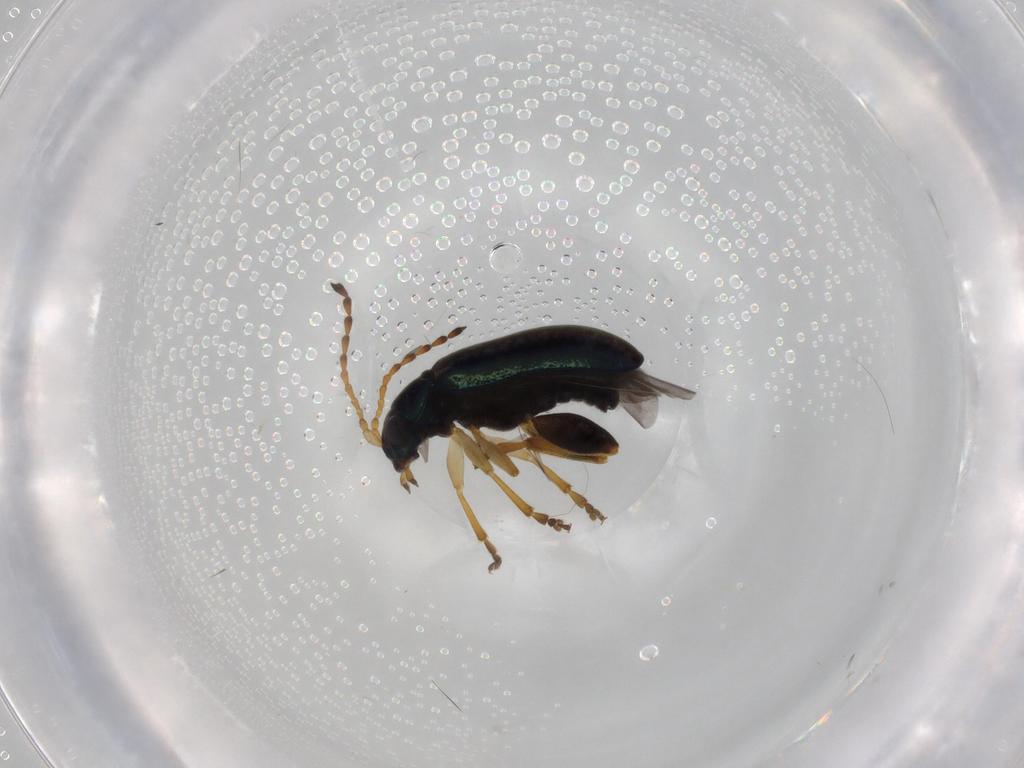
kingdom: Animalia
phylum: Arthropoda
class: Insecta
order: Coleoptera
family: Chrysomelidae
